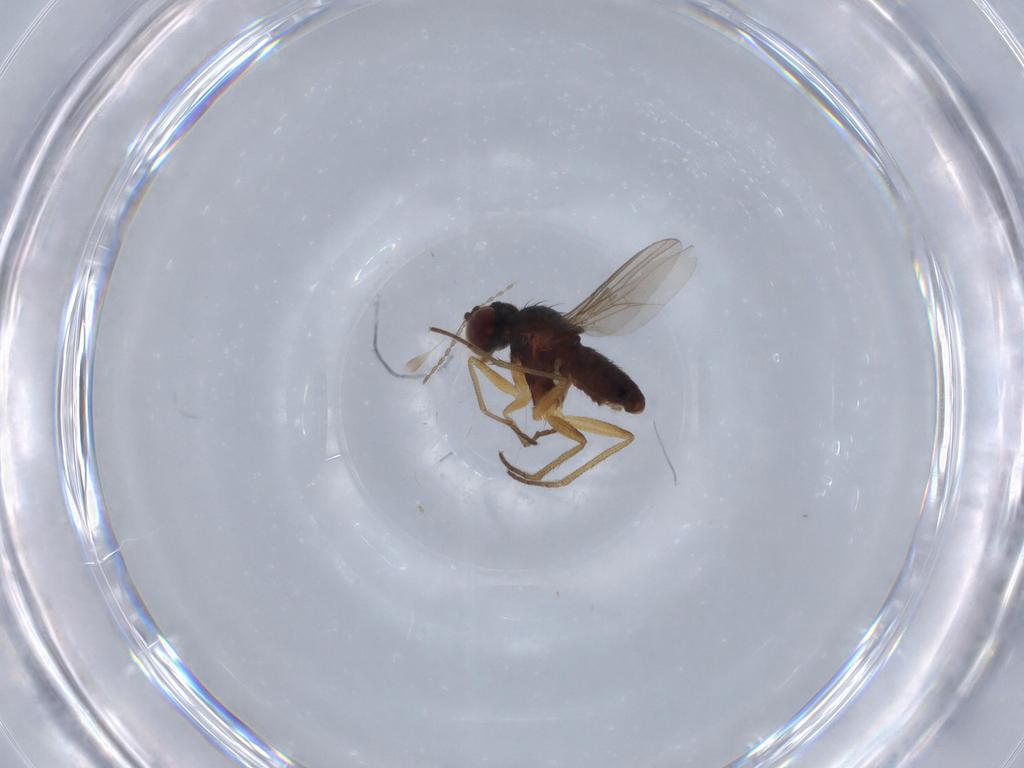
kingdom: Animalia
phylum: Arthropoda
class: Insecta
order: Diptera
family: Cecidomyiidae
